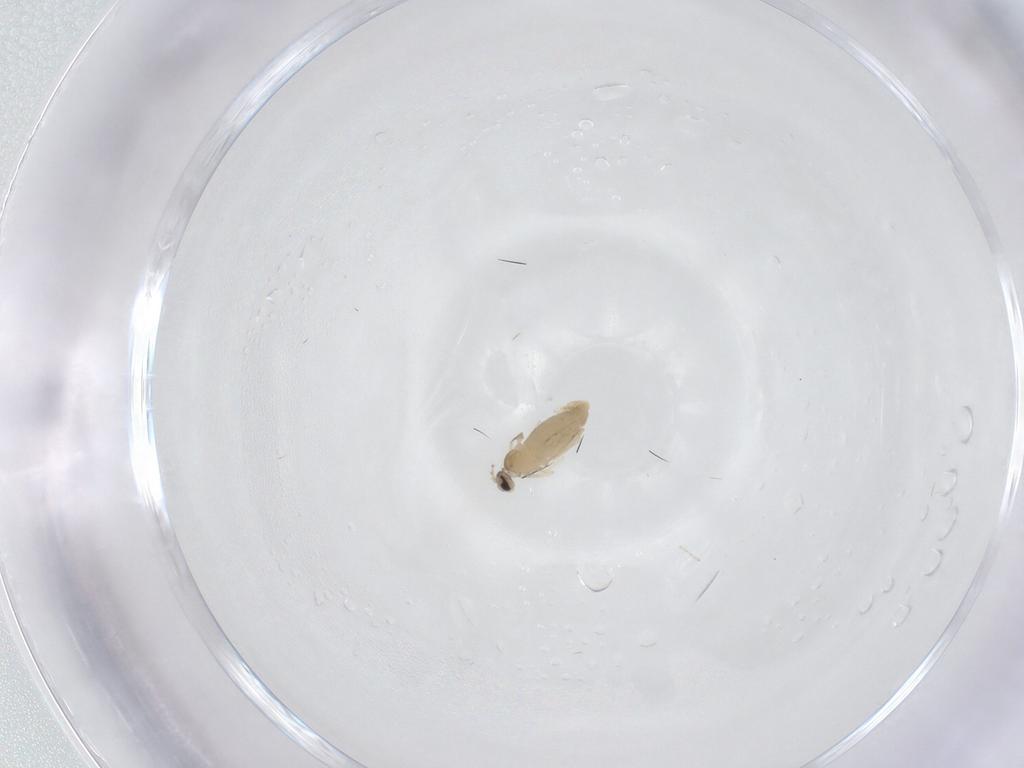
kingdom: Animalia
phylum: Arthropoda
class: Insecta
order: Diptera
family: Cecidomyiidae
